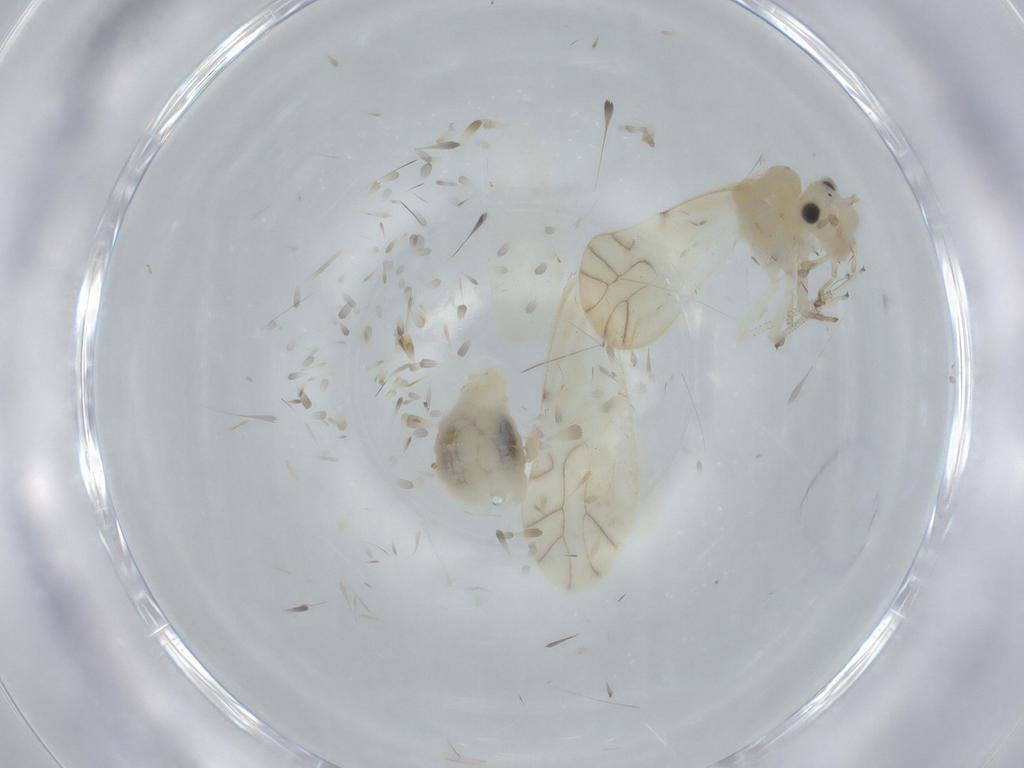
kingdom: Animalia
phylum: Arthropoda
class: Insecta
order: Psocodea
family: Caeciliusidae
